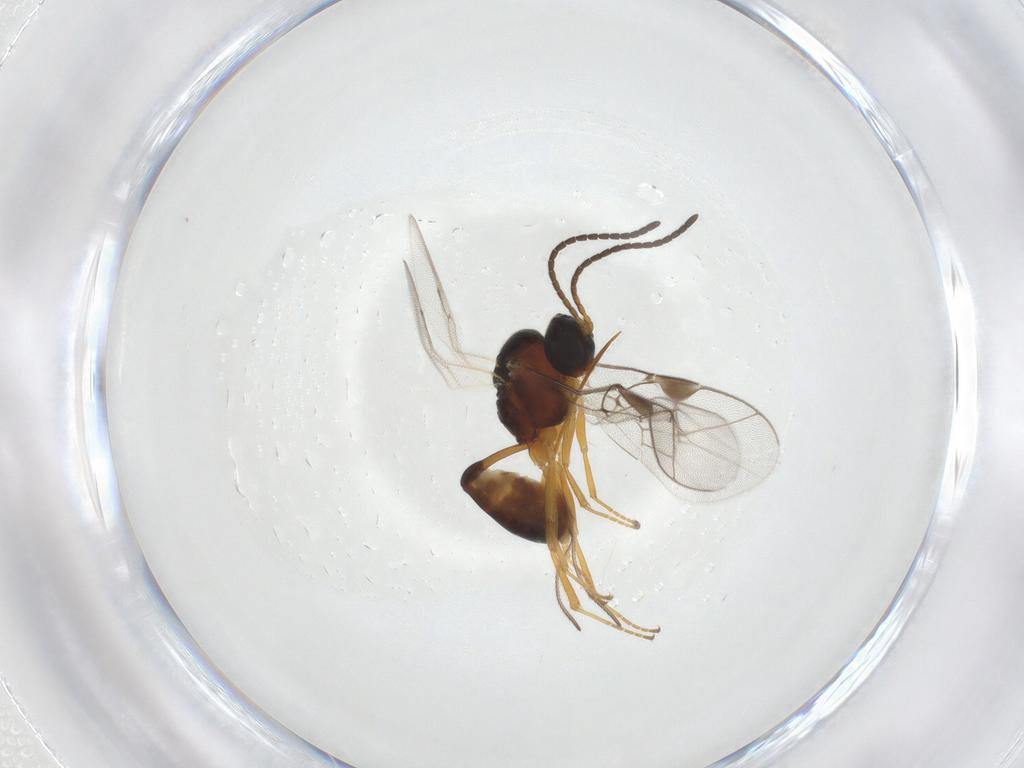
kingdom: Animalia
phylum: Arthropoda
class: Insecta
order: Hymenoptera
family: Ichneumonidae
